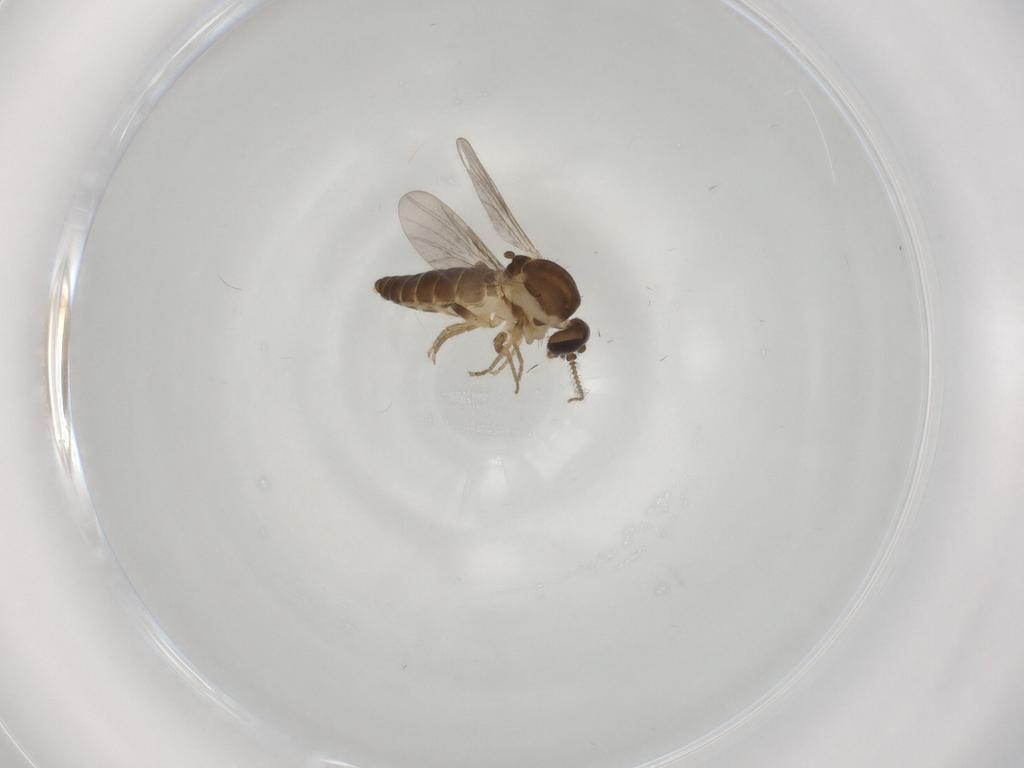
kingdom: Animalia
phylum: Arthropoda
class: Insecta
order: Diptera
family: Ceratopogonidae
